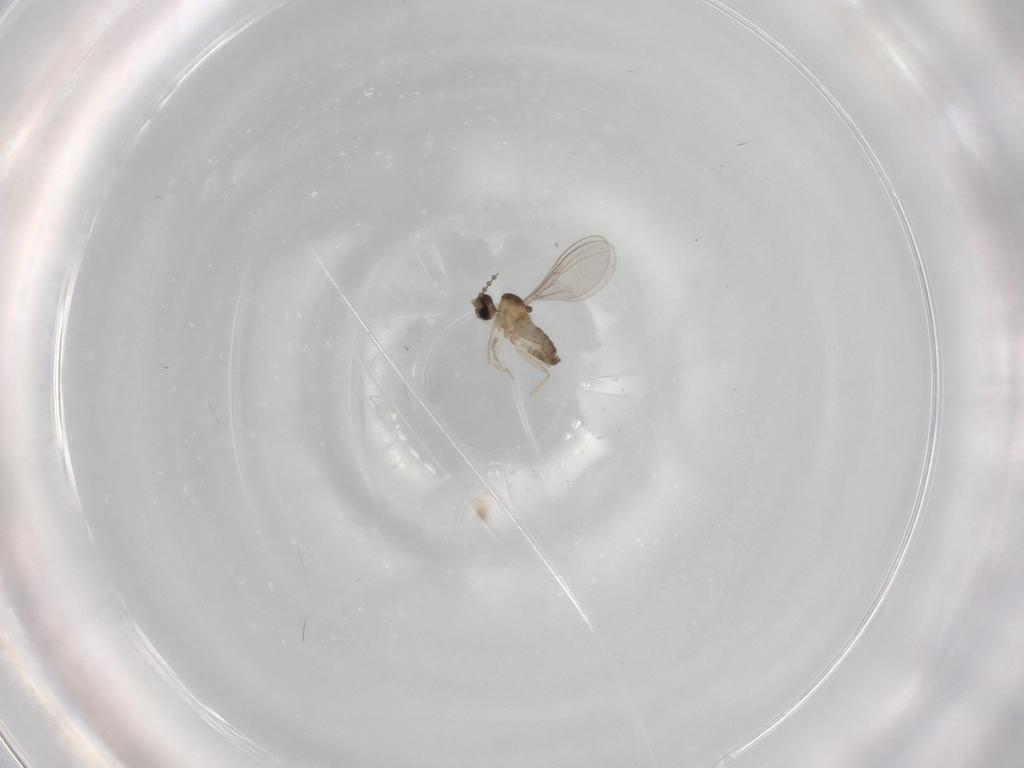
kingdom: Animalia
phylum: Arthropoda
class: Insecta
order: Diptera
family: Cecidomyiidae
